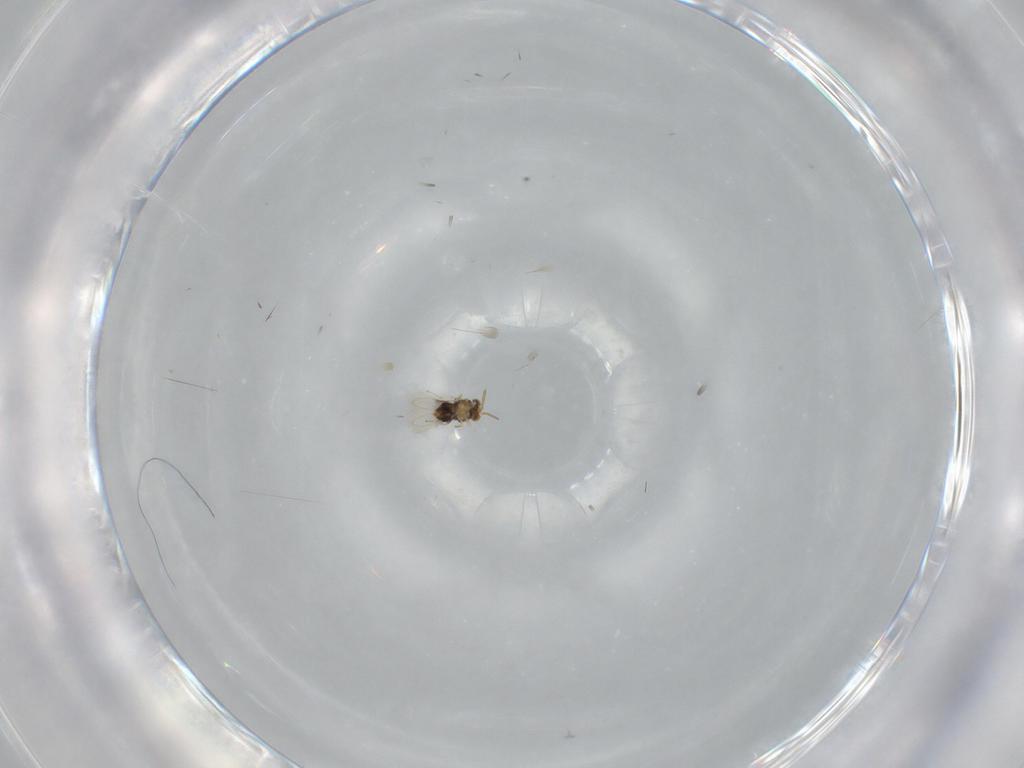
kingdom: Animalia
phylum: Arthropoda
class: Insecta
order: Hymenoptera
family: Aphelinidae
